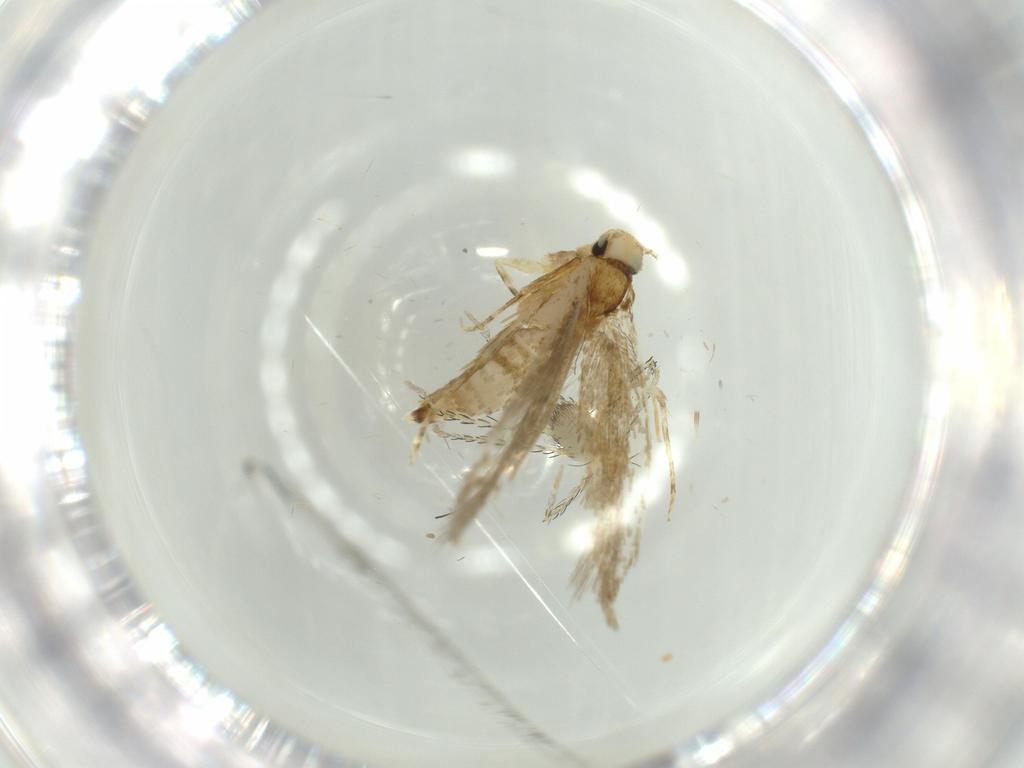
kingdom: Animalia
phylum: Arthropoda
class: Insecta
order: Lepidoptera
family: Tineidae
